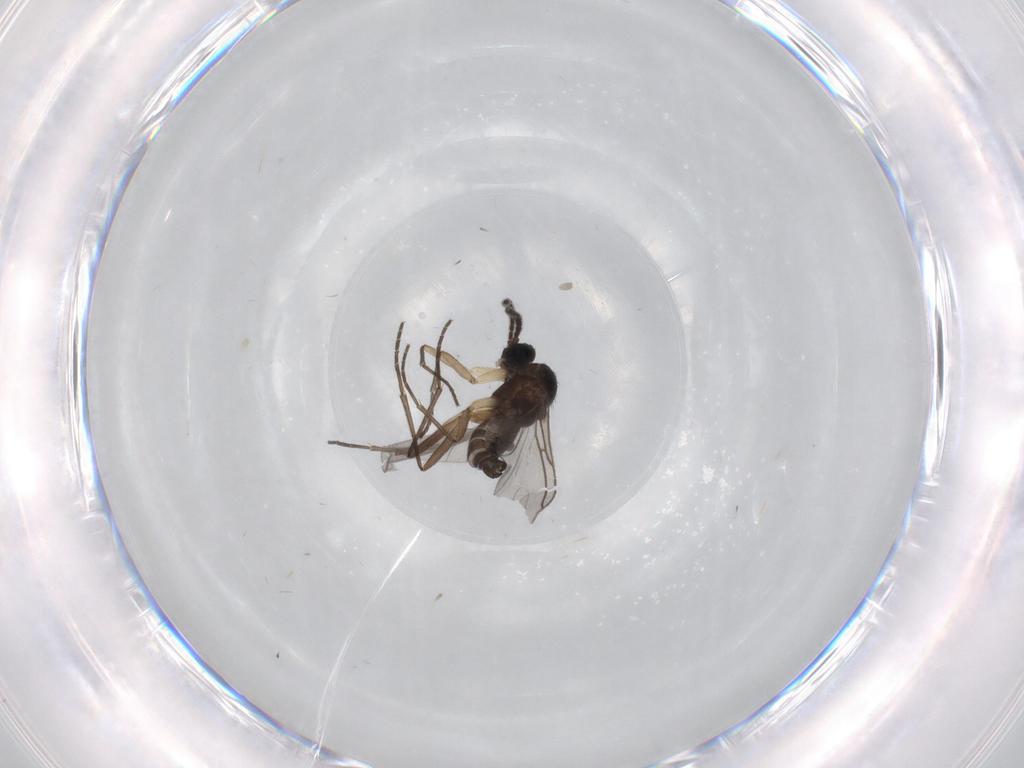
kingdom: Animalia
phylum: Arthropoda
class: Insecta
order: Diptera
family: Sciaridae
